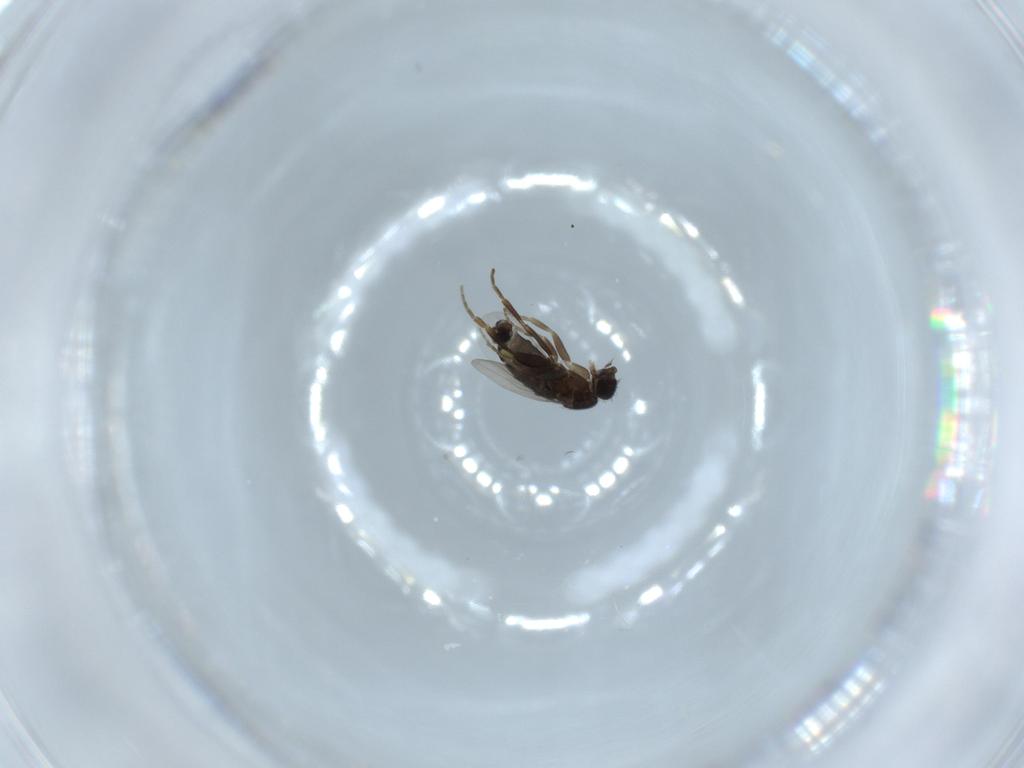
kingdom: Animalia
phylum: Arthropoda
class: Insecta
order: Diptera
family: Phoridae
